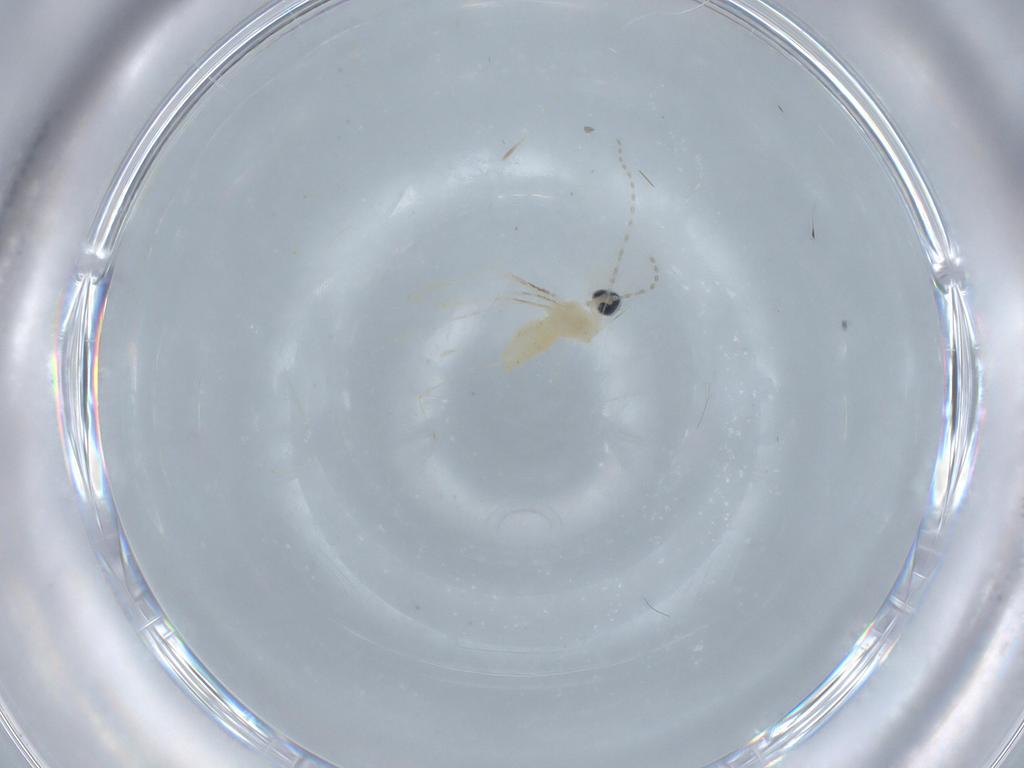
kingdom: Animalia
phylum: Arthropoda
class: Insecta
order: Diptera
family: Cecidomyiidae
